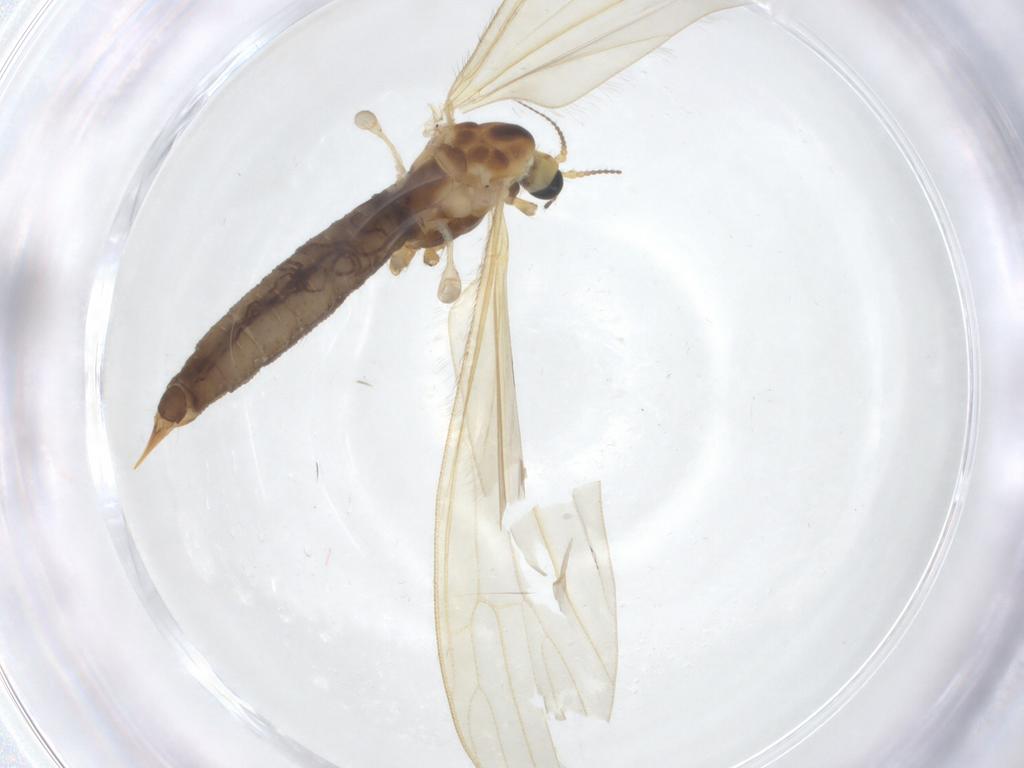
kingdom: Animalia
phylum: Arthropoda
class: Insecta
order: Diptera
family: Limoniidae
